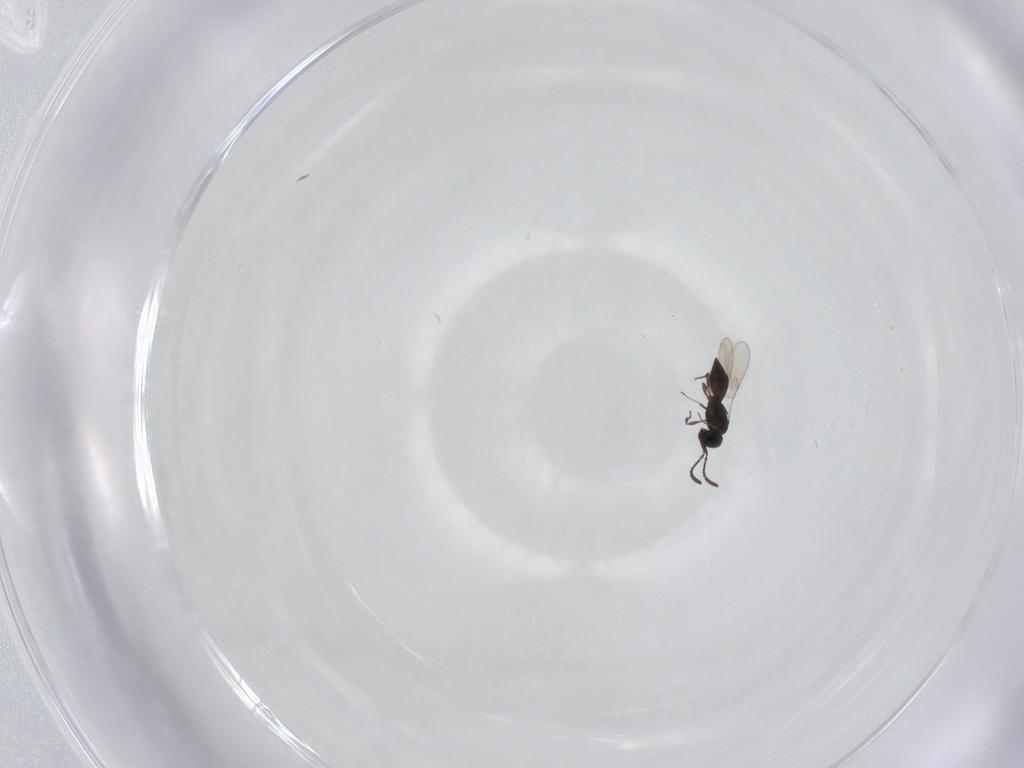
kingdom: Animalia
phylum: Arthropoda
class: Insecta
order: Hymenoptera
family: Scelionidae
